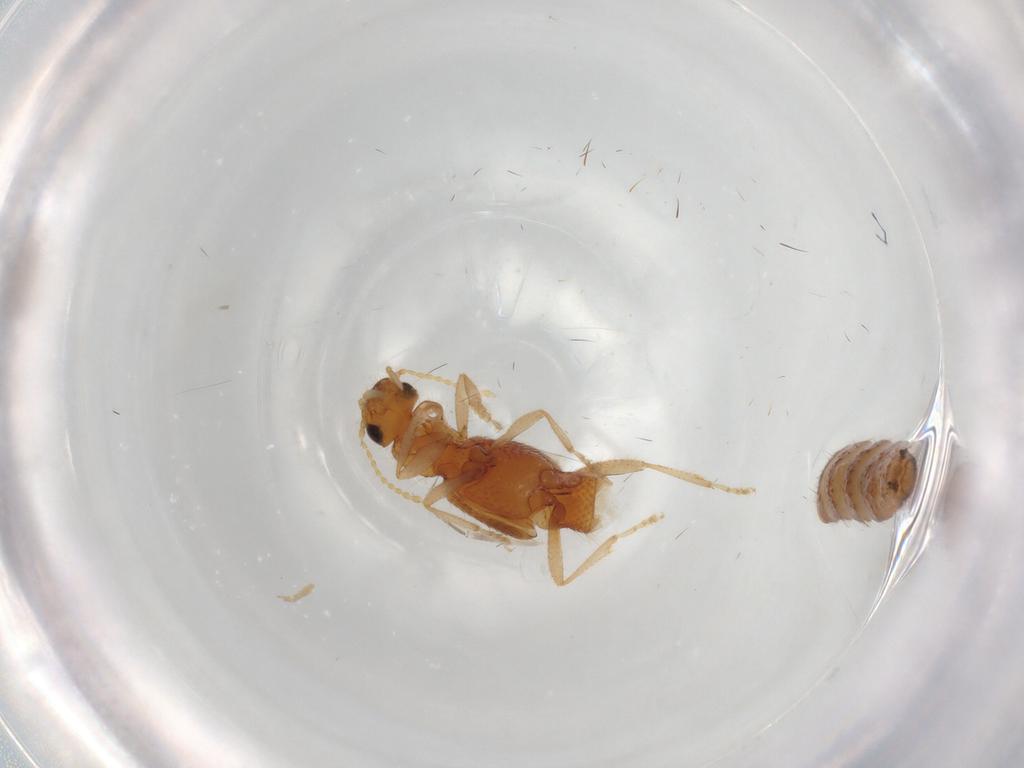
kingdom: Animalia
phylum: Arthropoda
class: Insecta
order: Coleoptera
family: Staphylinidae
